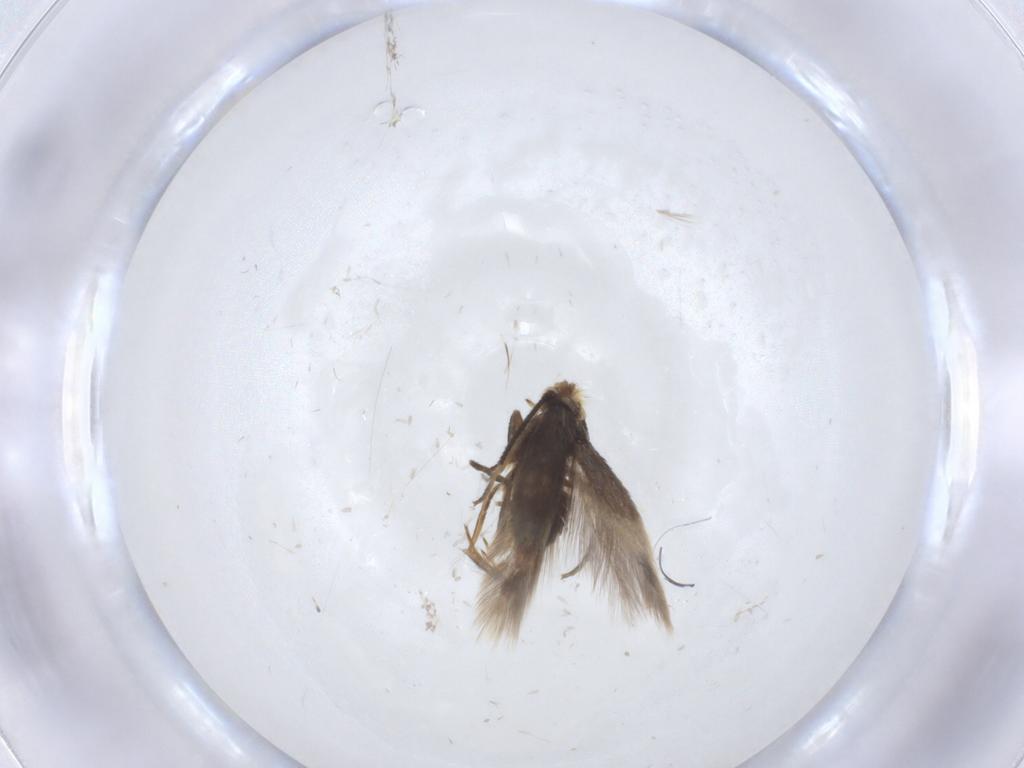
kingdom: Animalia
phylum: Arthropoda
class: Insecta
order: Lepidoptera
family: Nepticulidae
